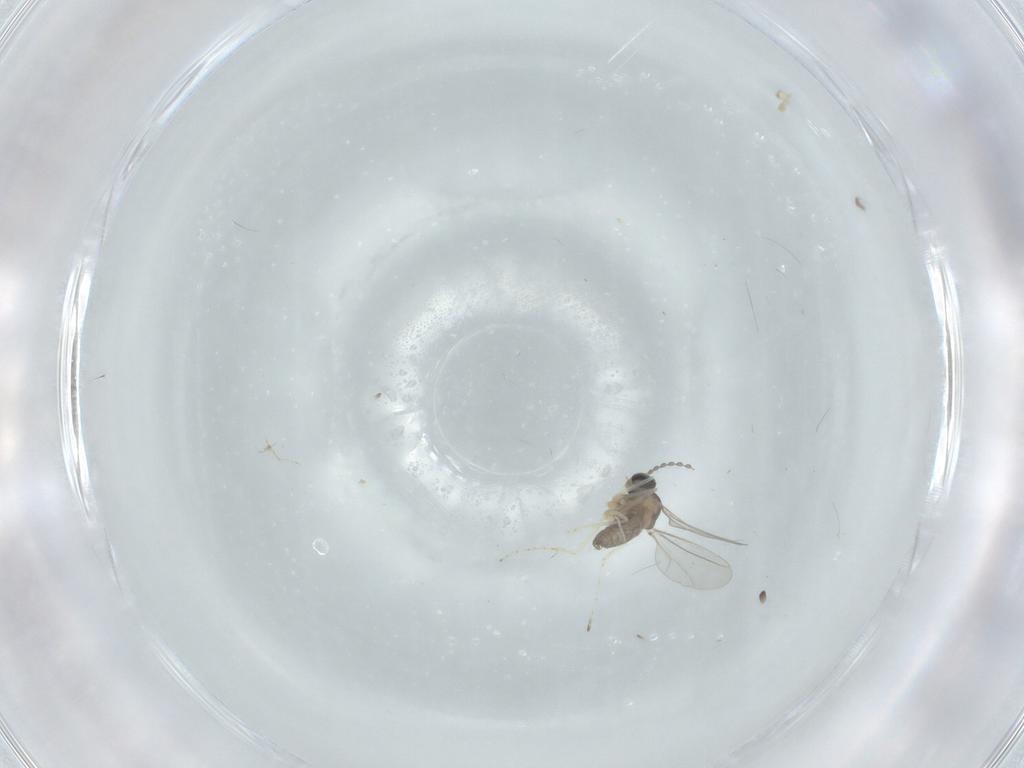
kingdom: Animalia
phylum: Arthropoda
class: Insecta
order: Diptera
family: Cecidomyiidae
